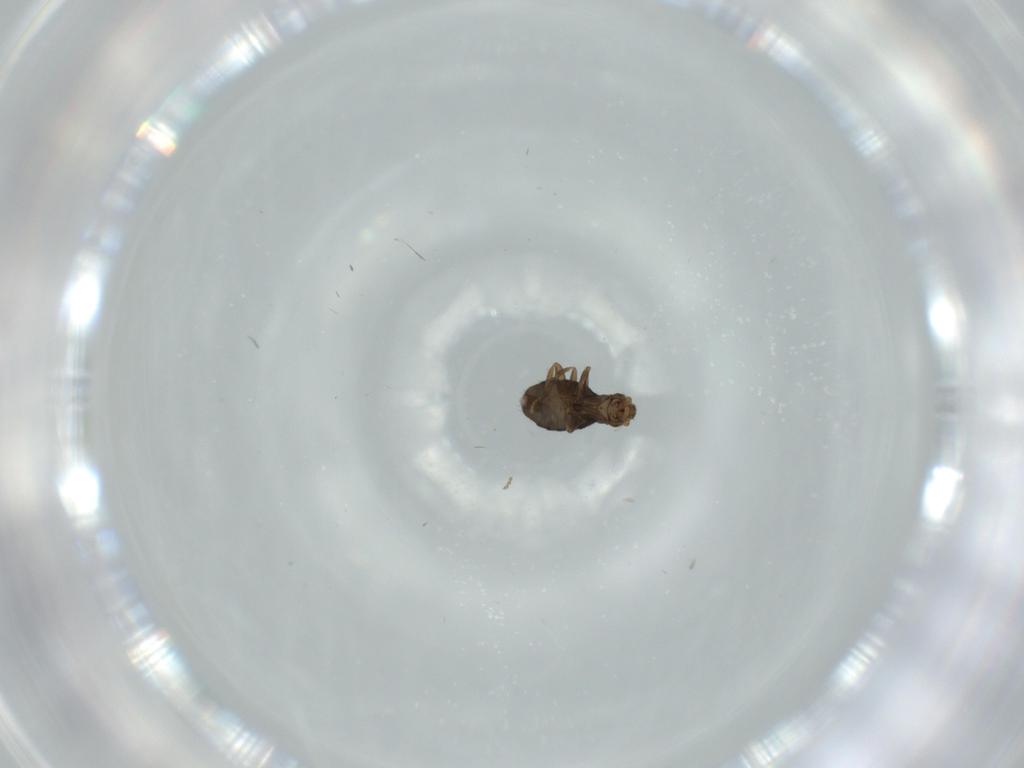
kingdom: Animalia
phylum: Arthropoda
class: Insecta
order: Diptera
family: Phoridae
